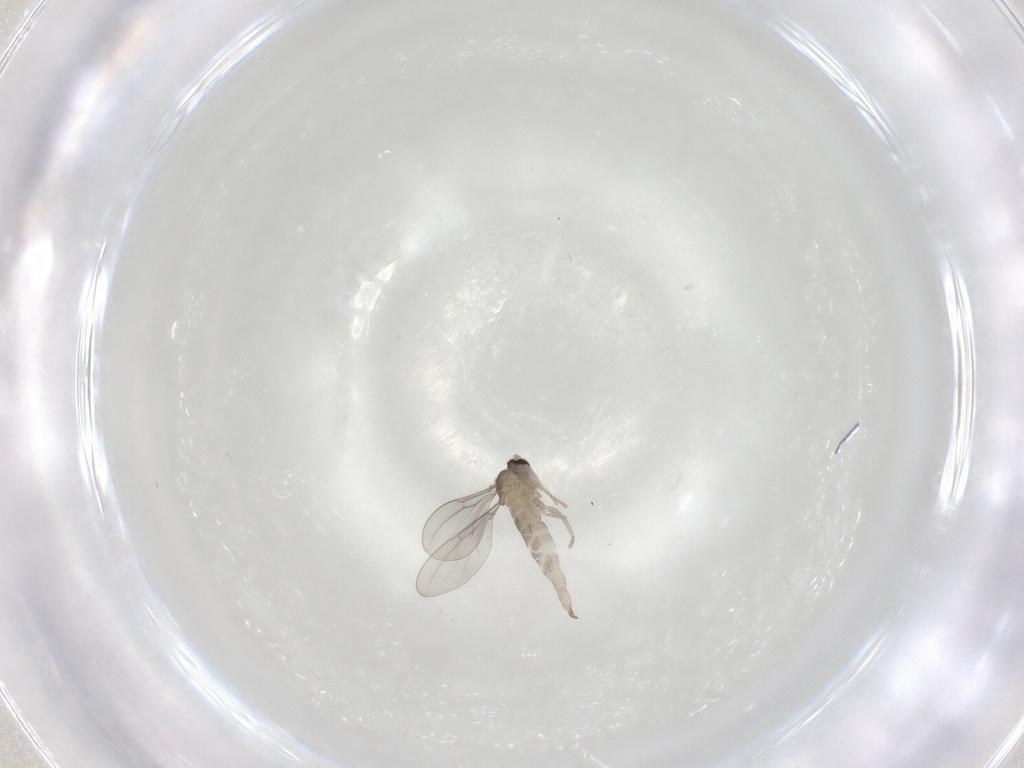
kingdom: Animalia
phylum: Arthropoda
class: Insecta
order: Diptera
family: Cecidomyiidae
